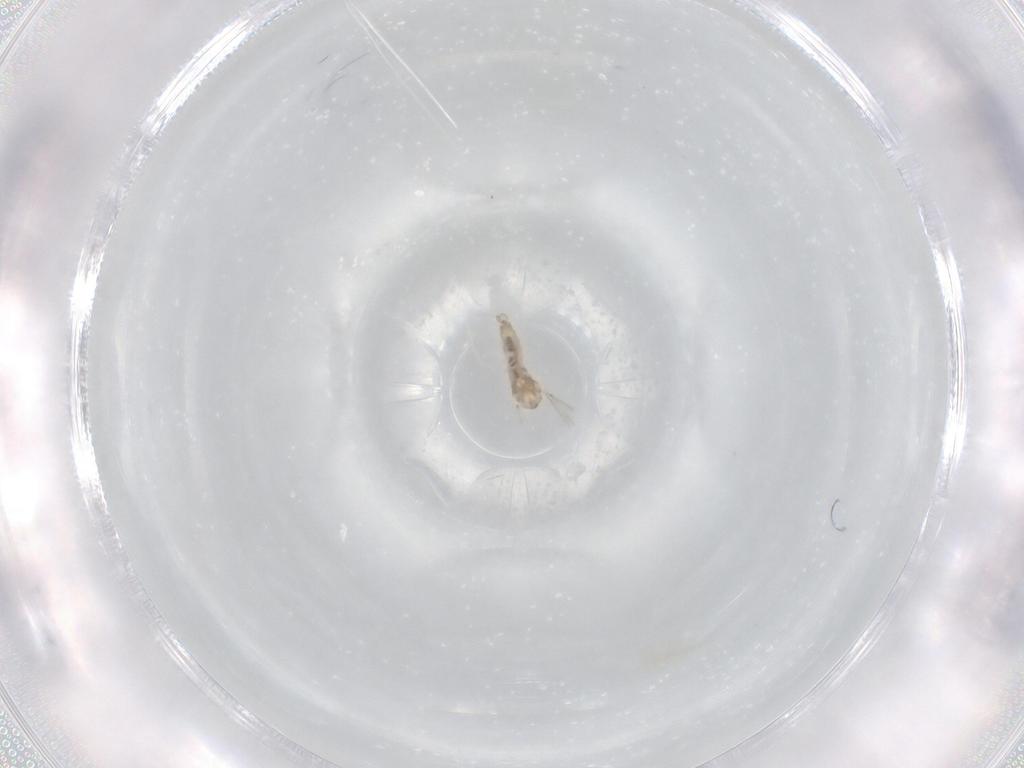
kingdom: Animalia
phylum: Arthropoda
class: Insecta
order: Diptera
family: Cecidomyiidae
